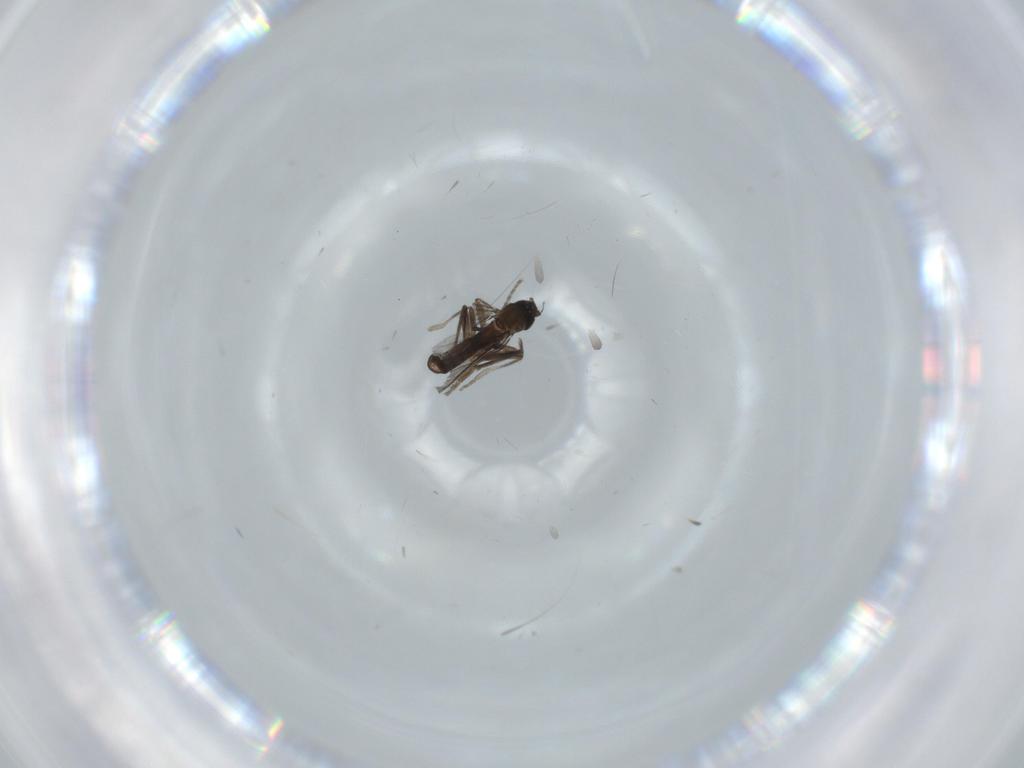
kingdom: Animalia
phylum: Arthropoda
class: Insecta
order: Diptera
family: Phoridae
